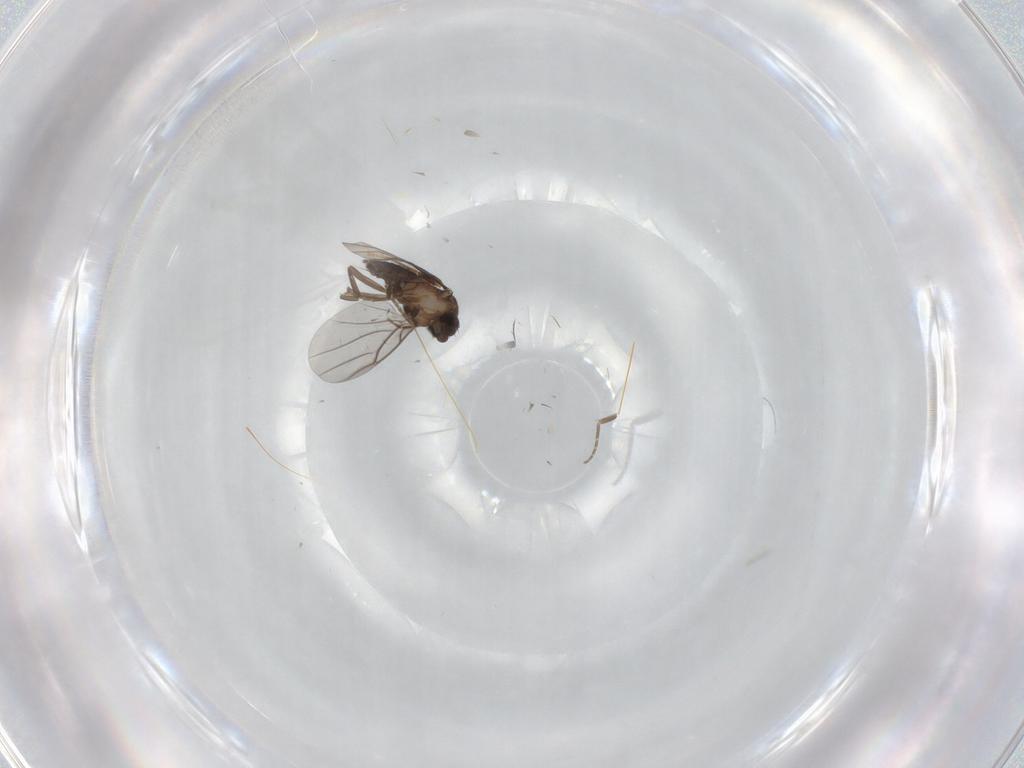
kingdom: Animalia
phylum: Arthropoda
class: Insecta
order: Diptera
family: Phoridae
